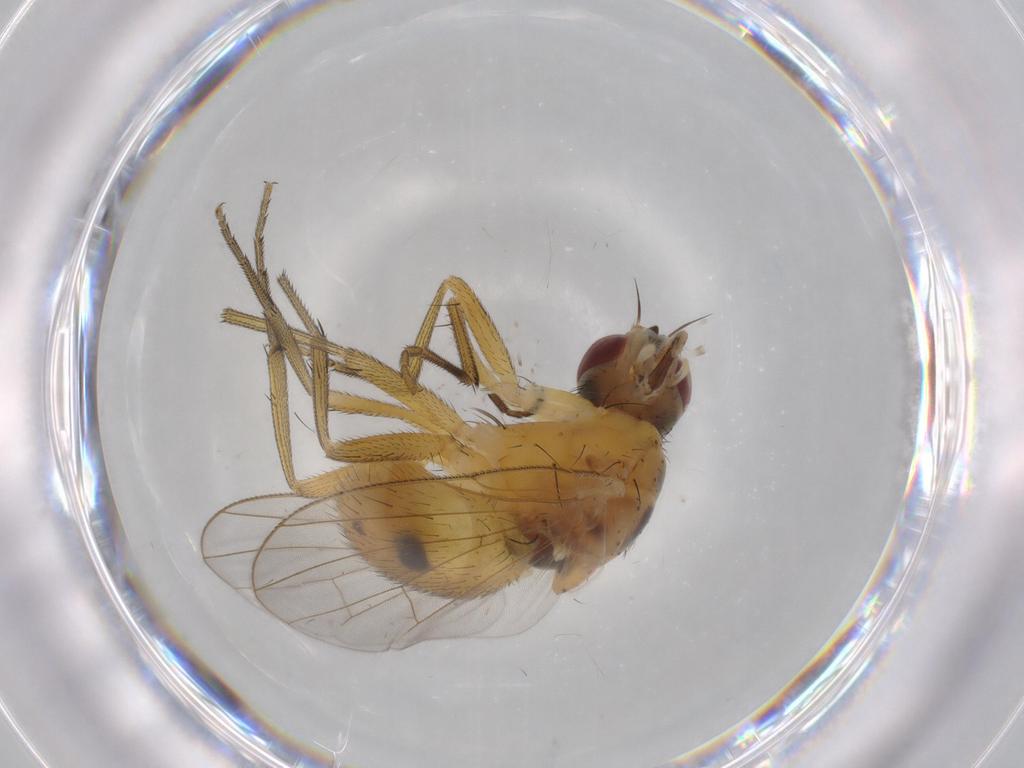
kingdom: Animalia
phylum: Arthropoda
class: Insecta
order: Diptera
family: Muscidae
